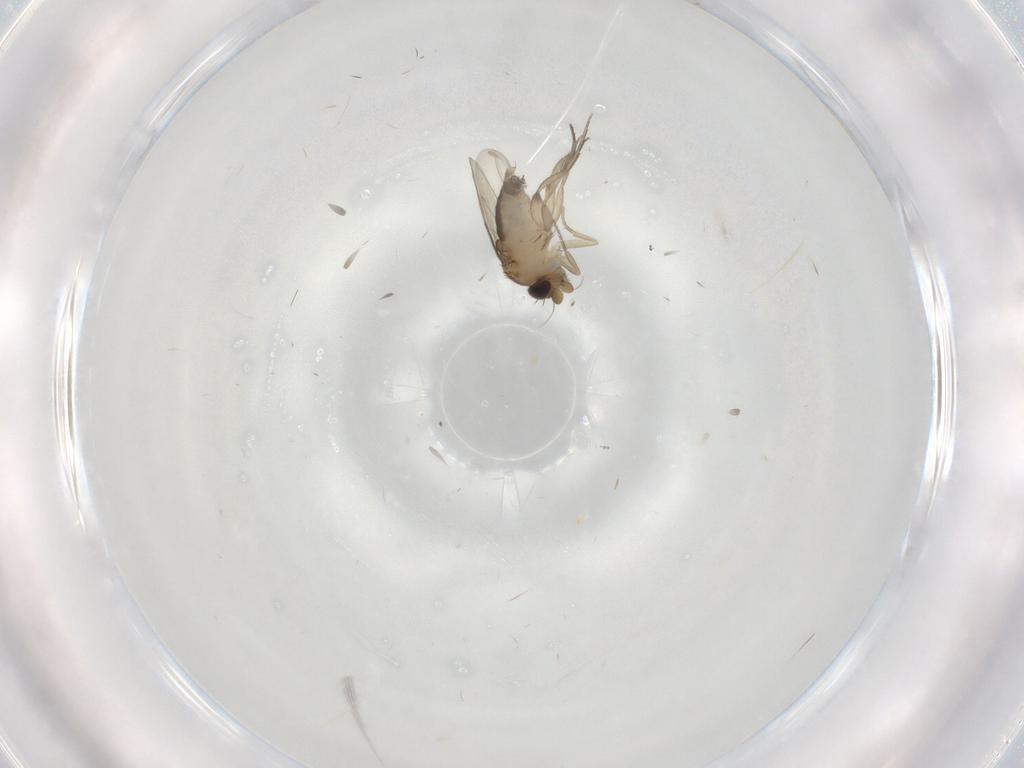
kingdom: Animalia
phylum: Arthropoda
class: Insecta
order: Diptera
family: Phoridae
